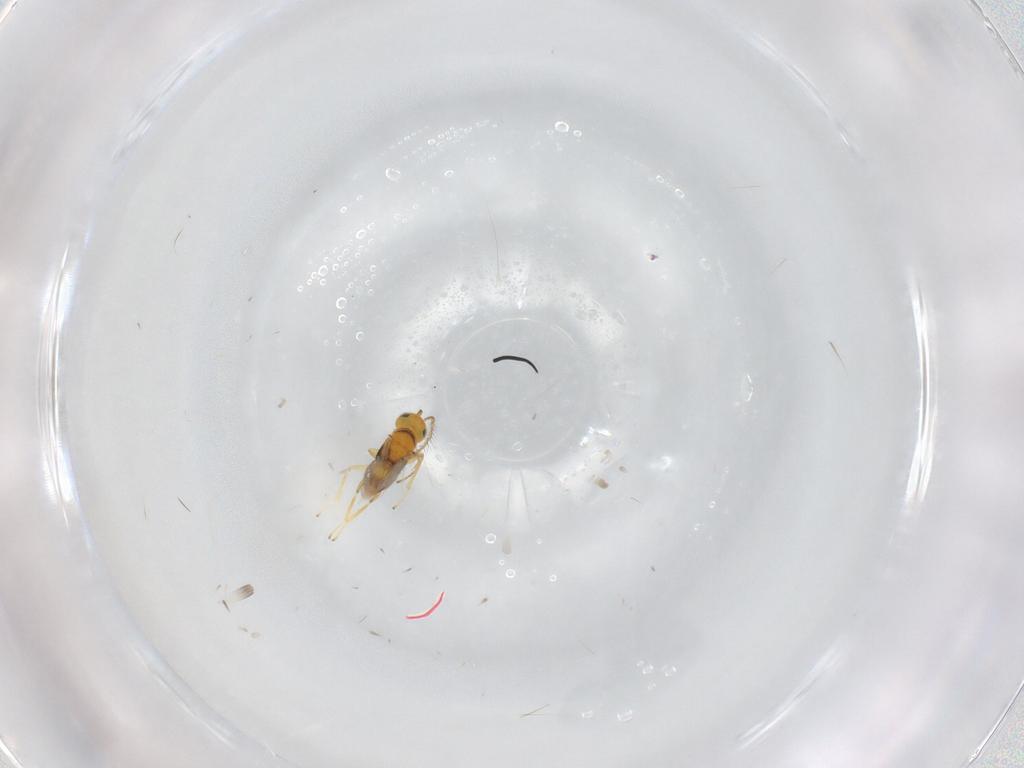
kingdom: Animalia
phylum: Arthropoda
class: Insecta
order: Hymenoptera
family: Encyrtidae
